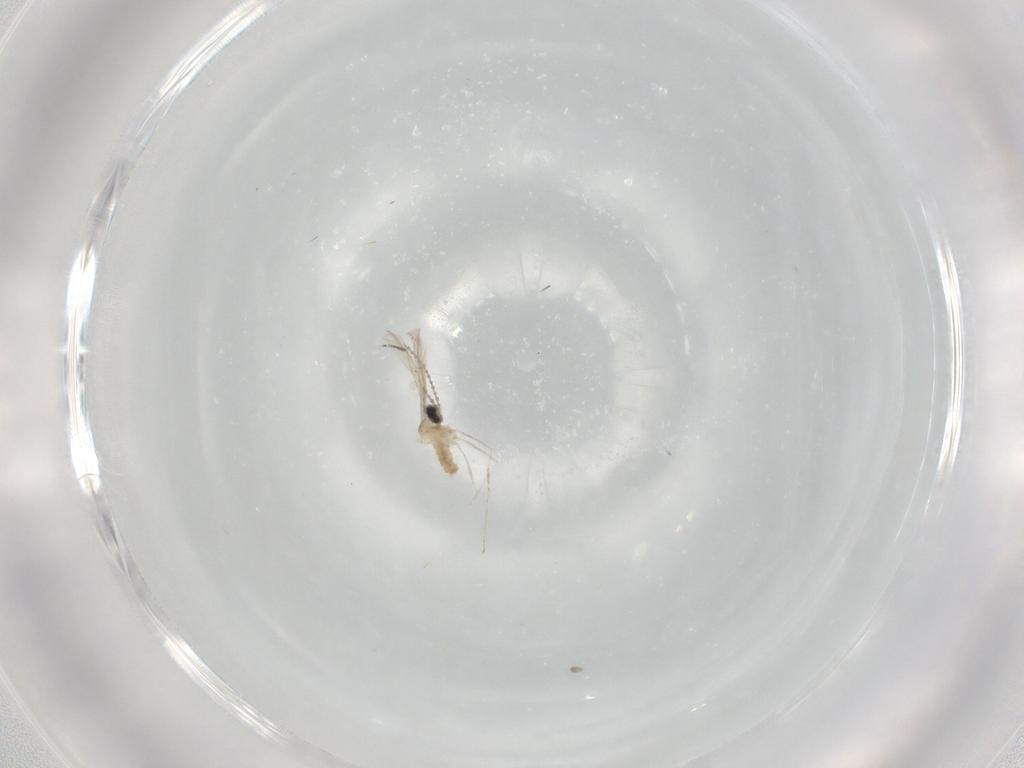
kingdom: Animalia
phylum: Arthropoda
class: Insecta
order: Diptera
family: Cecidomyiidae
